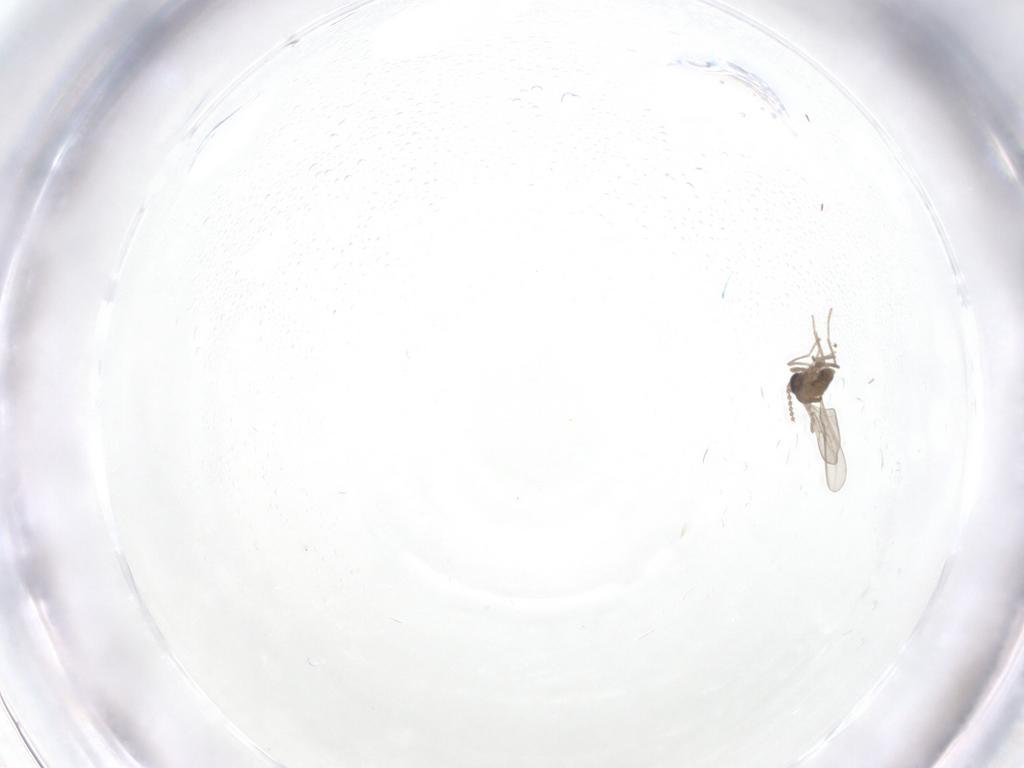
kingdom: Animalia
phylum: Arthropoda
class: Insecta
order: Diptera
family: Cecidomyiidae
